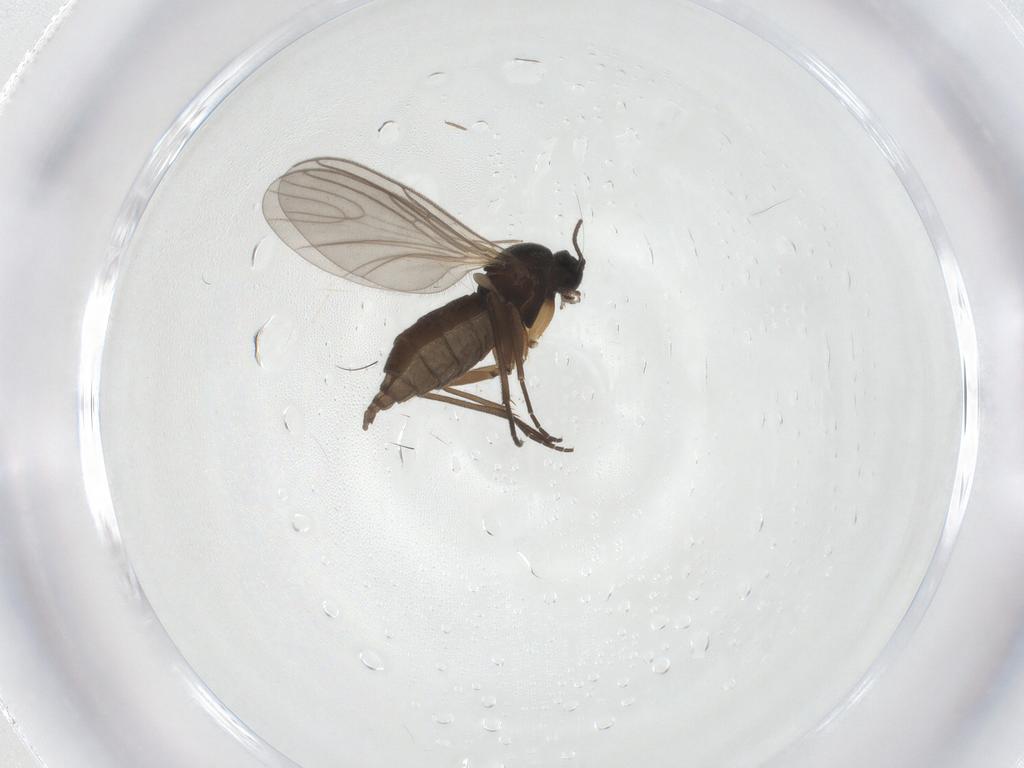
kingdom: Animalia
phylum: Arthropoda
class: Insecta
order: Diptera
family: Sciaridae
